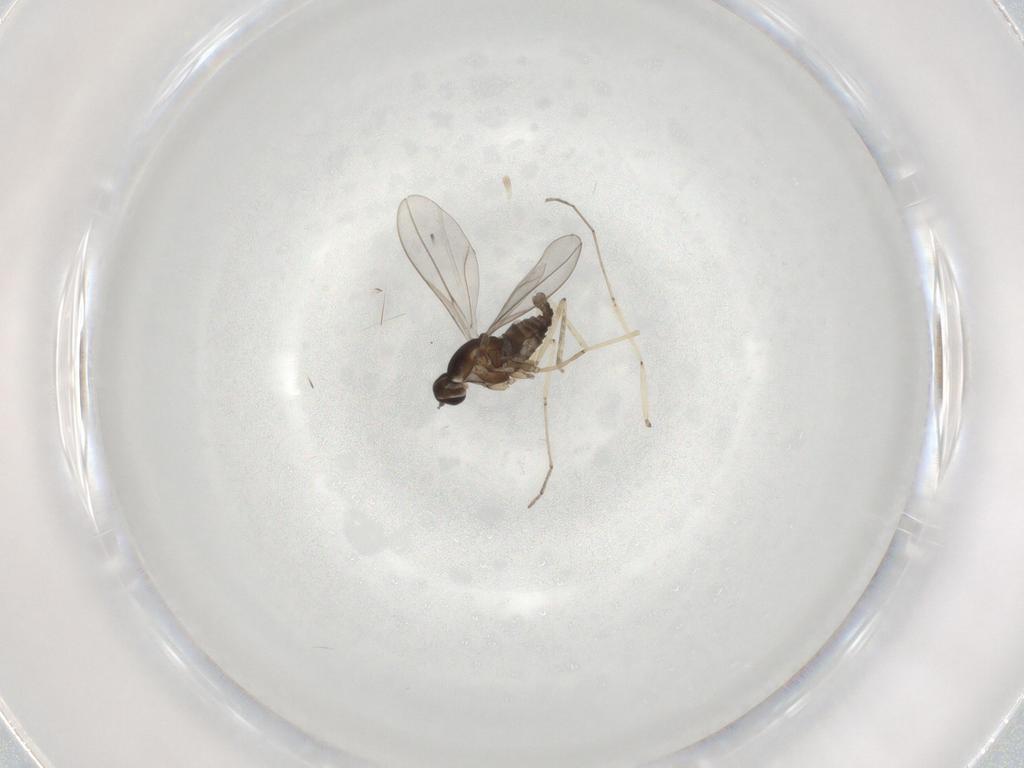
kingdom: Animalia
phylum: Arthropoda
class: Insecta
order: Diptera
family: Cecidomyiidae
